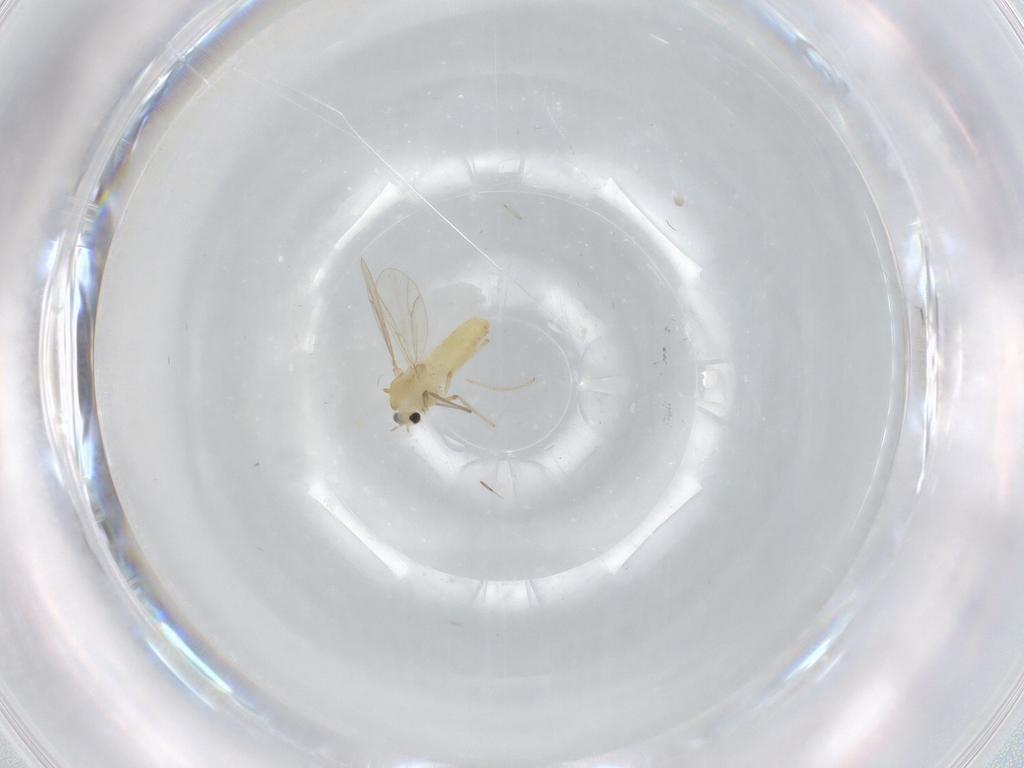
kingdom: Animalia
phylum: Arthropoda
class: Insecta
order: Diptera
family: Chironomidae
